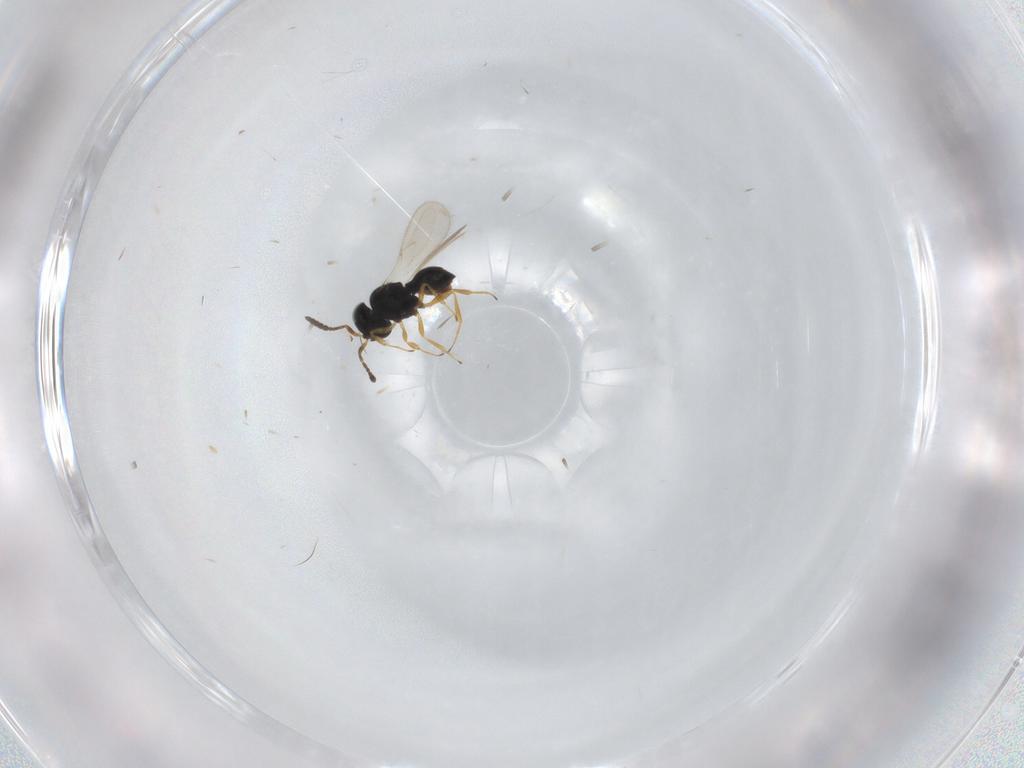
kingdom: Animalia
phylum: Arthropoda
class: Insecta
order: Hymenoptera
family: Scelionidae
